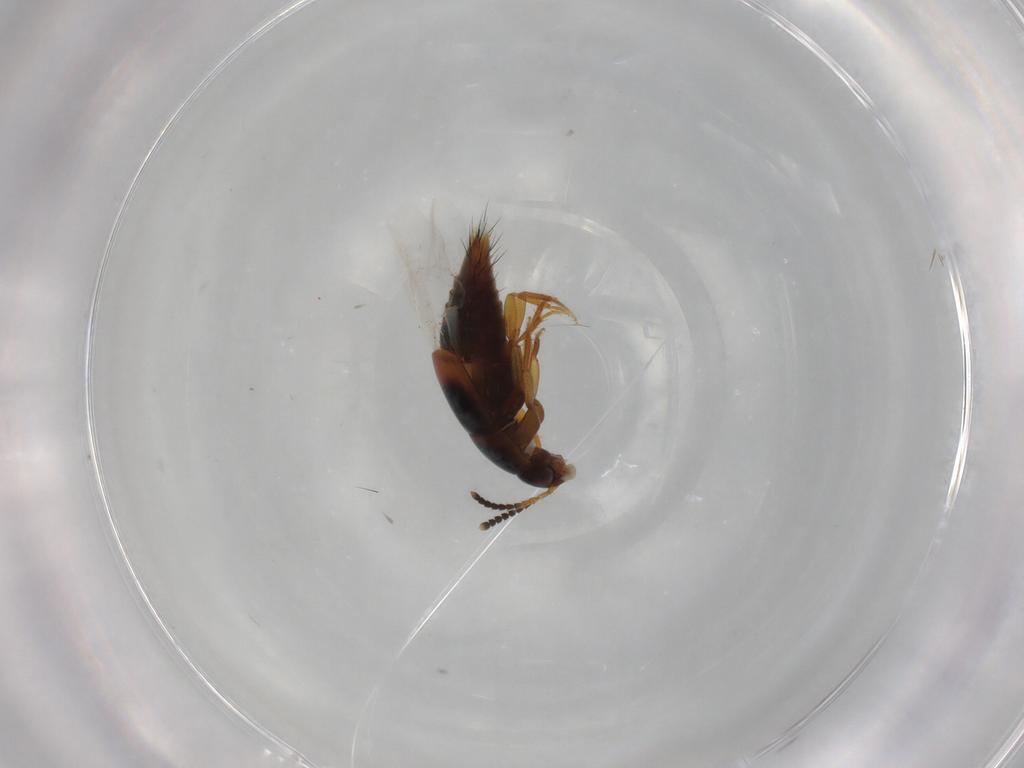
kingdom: Animalia
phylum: Arthropoda
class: Insecta
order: Coleoptera
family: Staphylinidae
